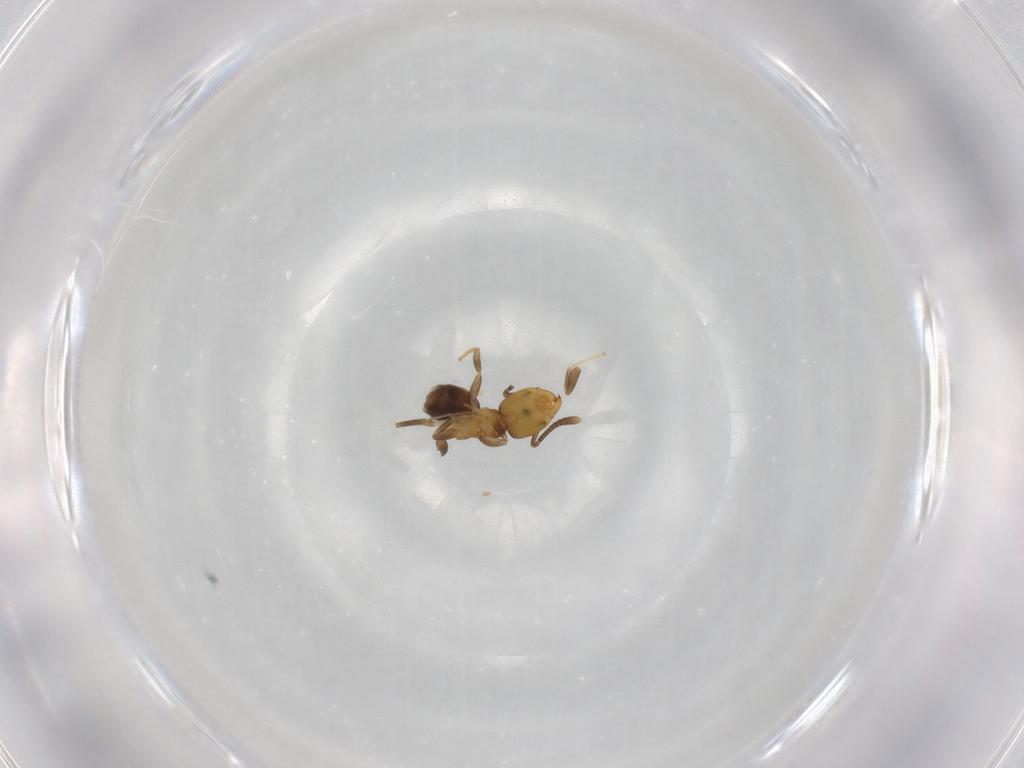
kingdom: Animalia
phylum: Arthropoda
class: Insecta
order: Hymenoptera
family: Formicidae
